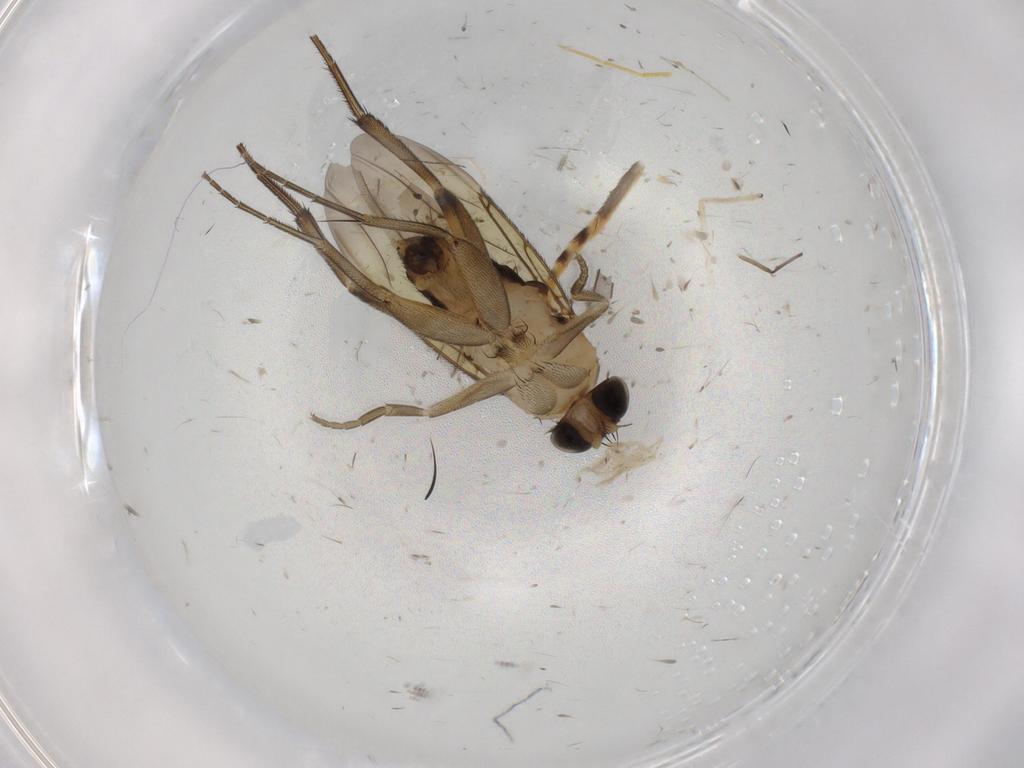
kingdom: Animalia
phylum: Arthropoda
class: Insecta
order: Diptera
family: Phoridae
